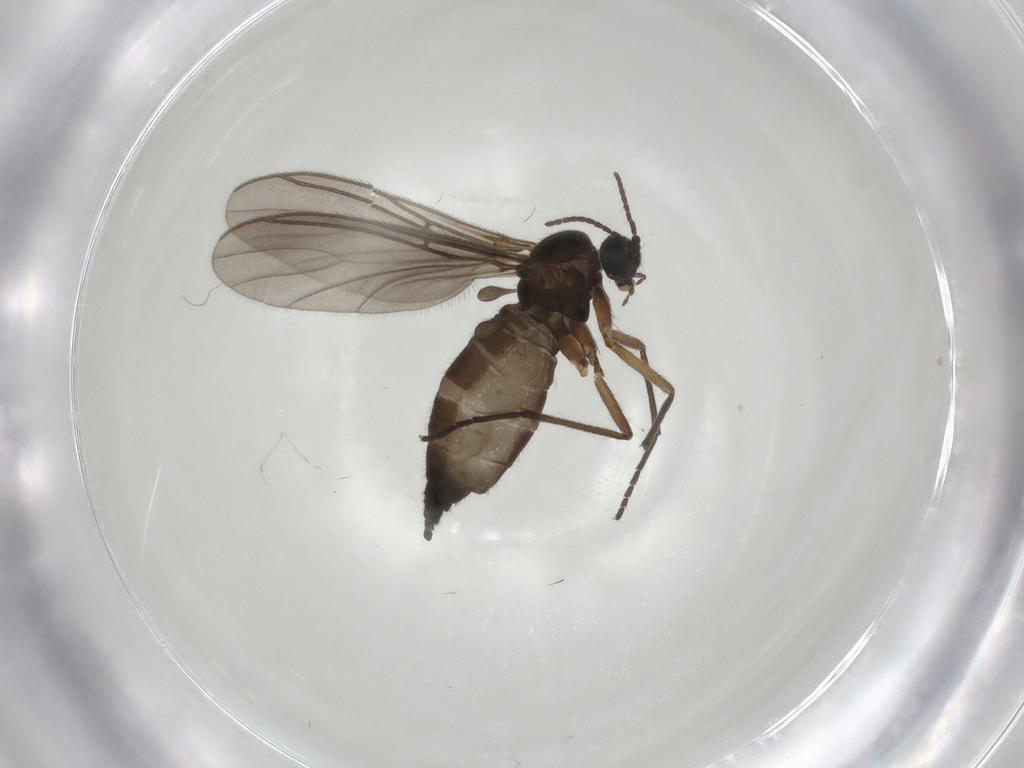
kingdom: Animalia
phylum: Arthropoda
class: Insecta
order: Diptera
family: Sciaridae
